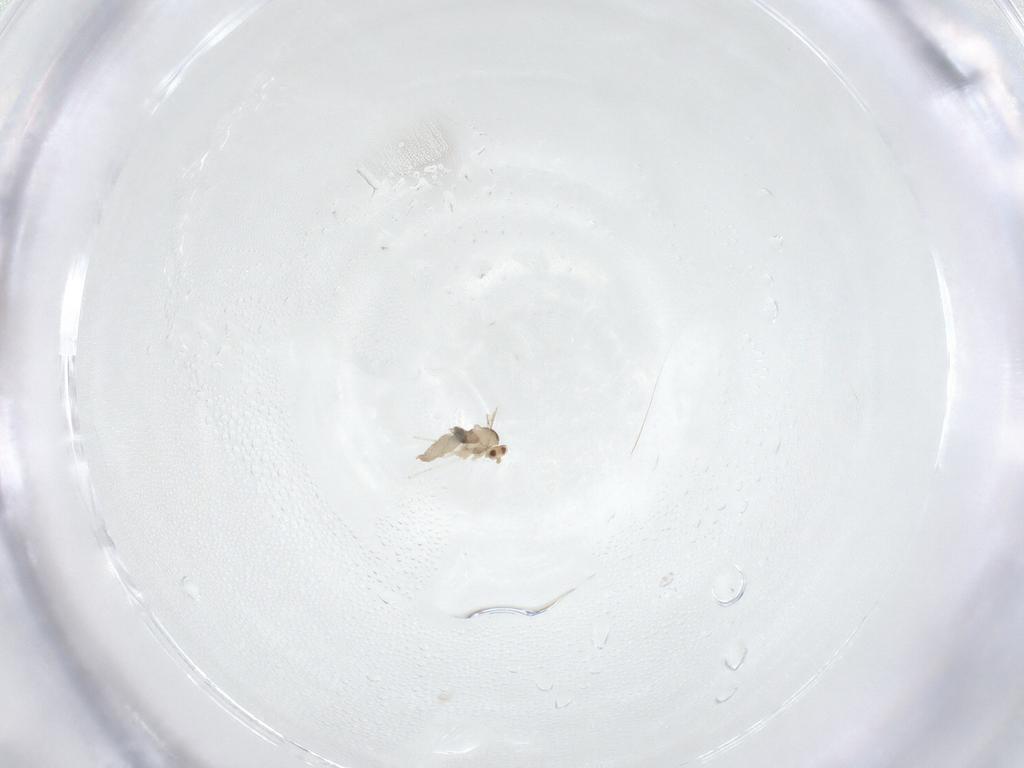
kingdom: Animalia
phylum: Arthropoda
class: Insecta
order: Diptera
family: Cecidomyiidae
